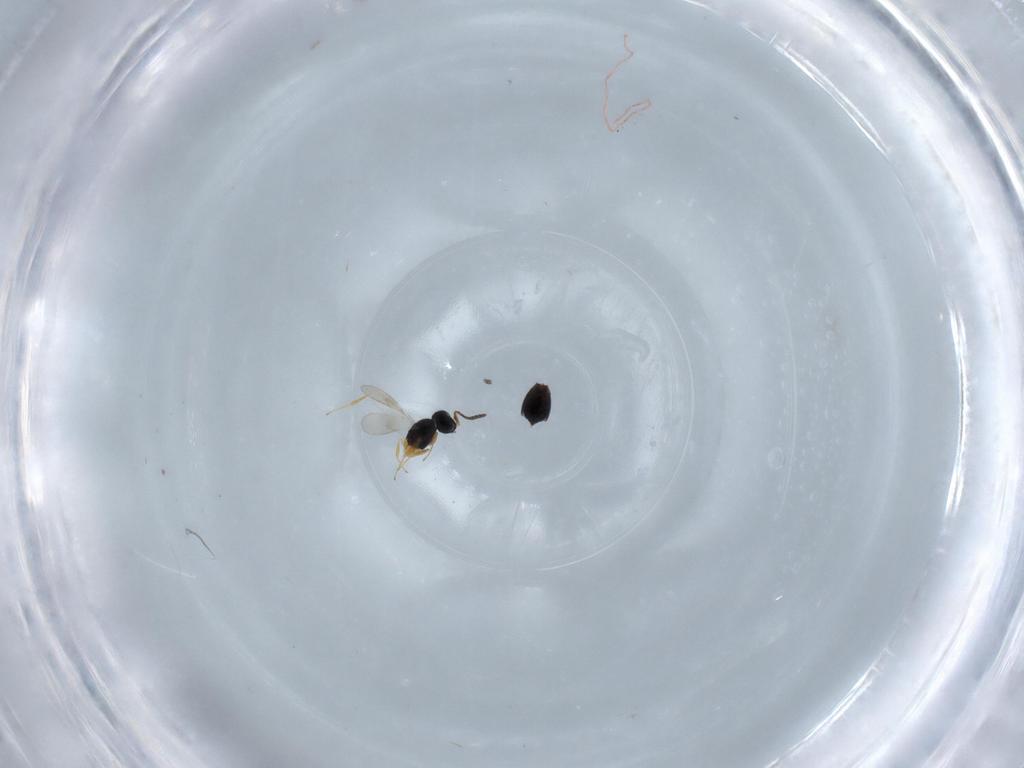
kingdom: Animalia
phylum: Arthropoda
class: Insecta
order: Hymenoptera
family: Scelionidae
